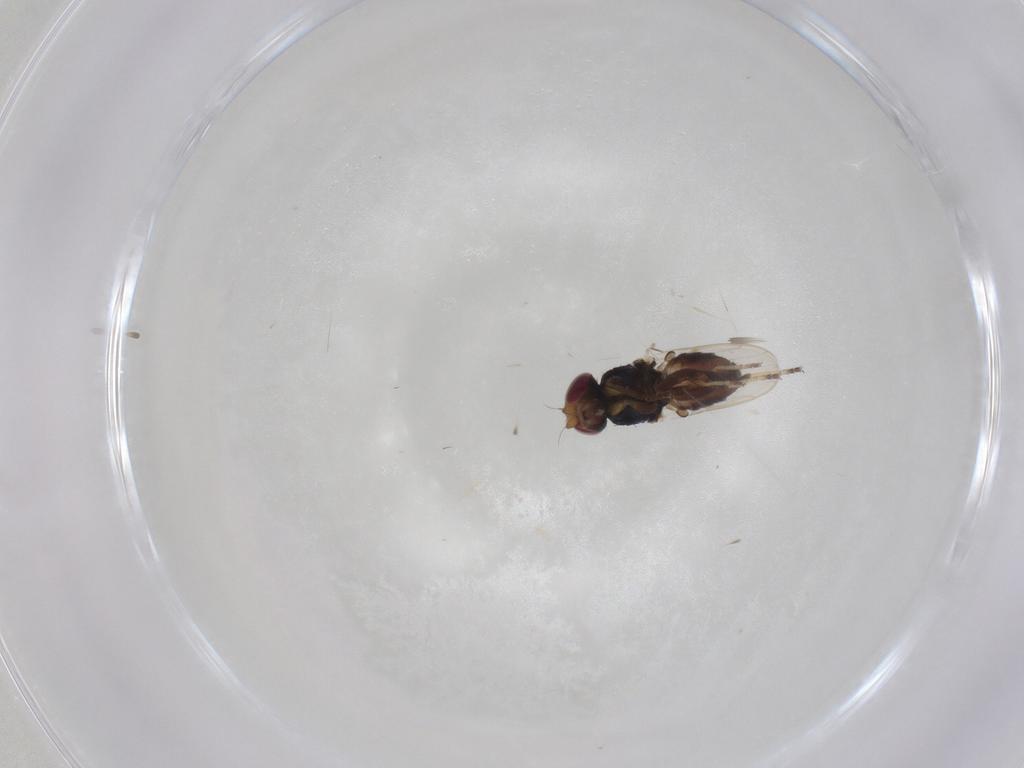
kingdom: Animalia
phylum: Arthropoda
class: Insecta
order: Diptera
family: Chloropidae
